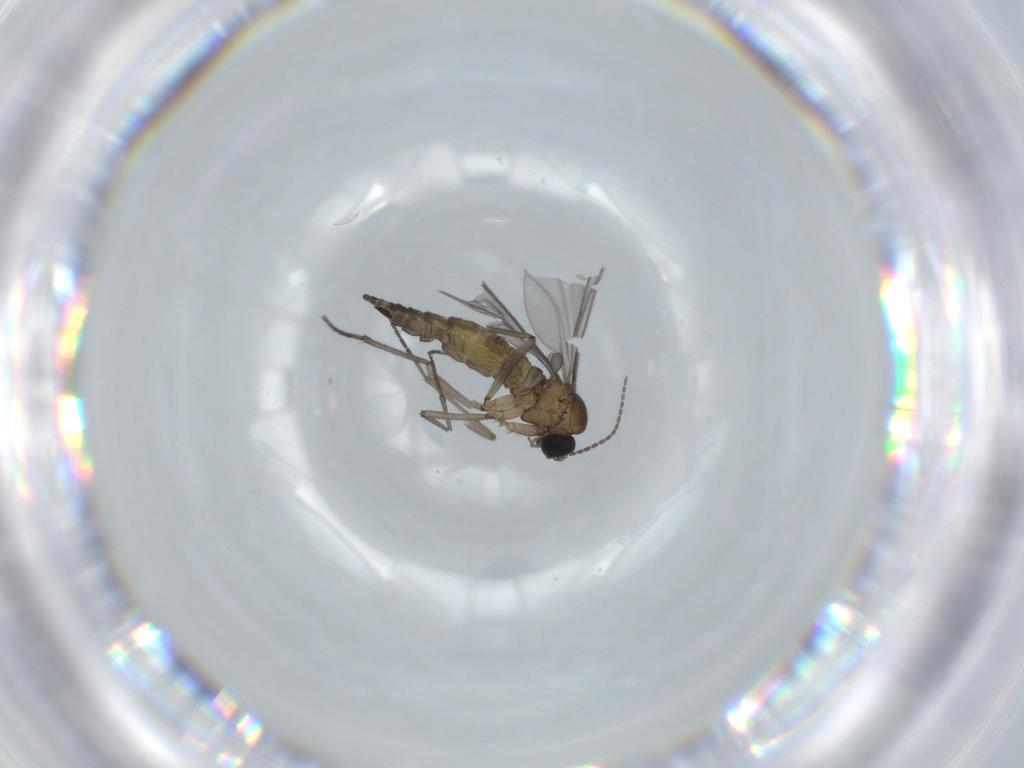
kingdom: Animalia
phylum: Arthropoda
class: Insecta
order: Diptera
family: Sciaridae
